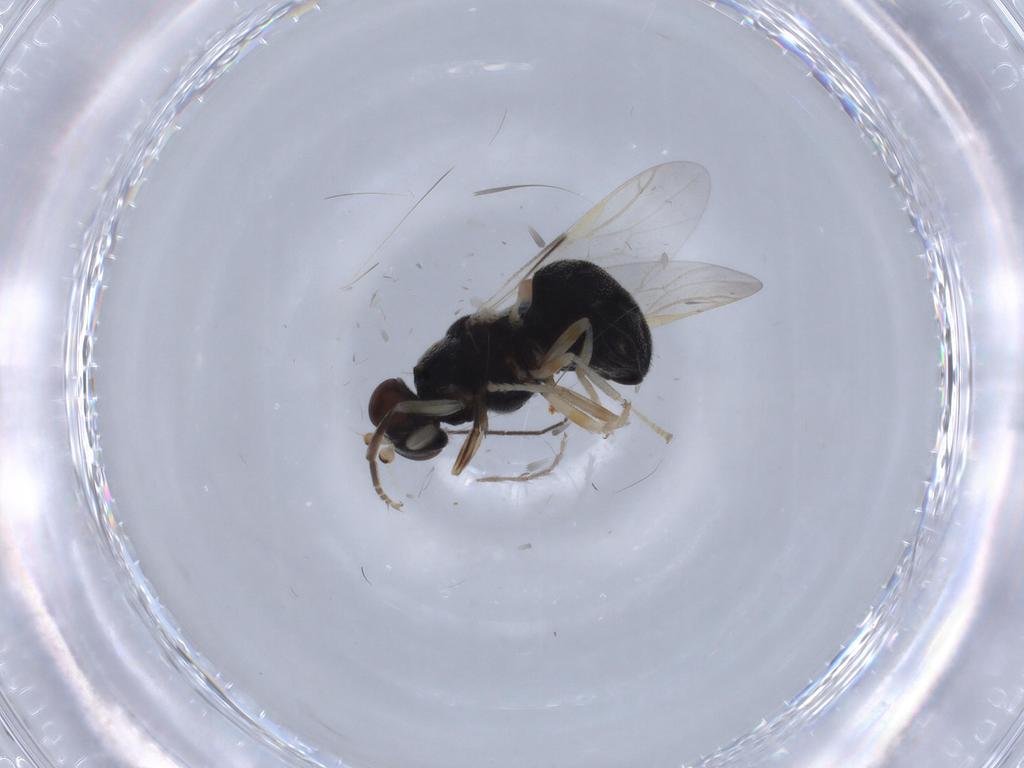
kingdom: Animalia
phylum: Arthropoda
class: Insecta
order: Diptera
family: Stratiomyidae
